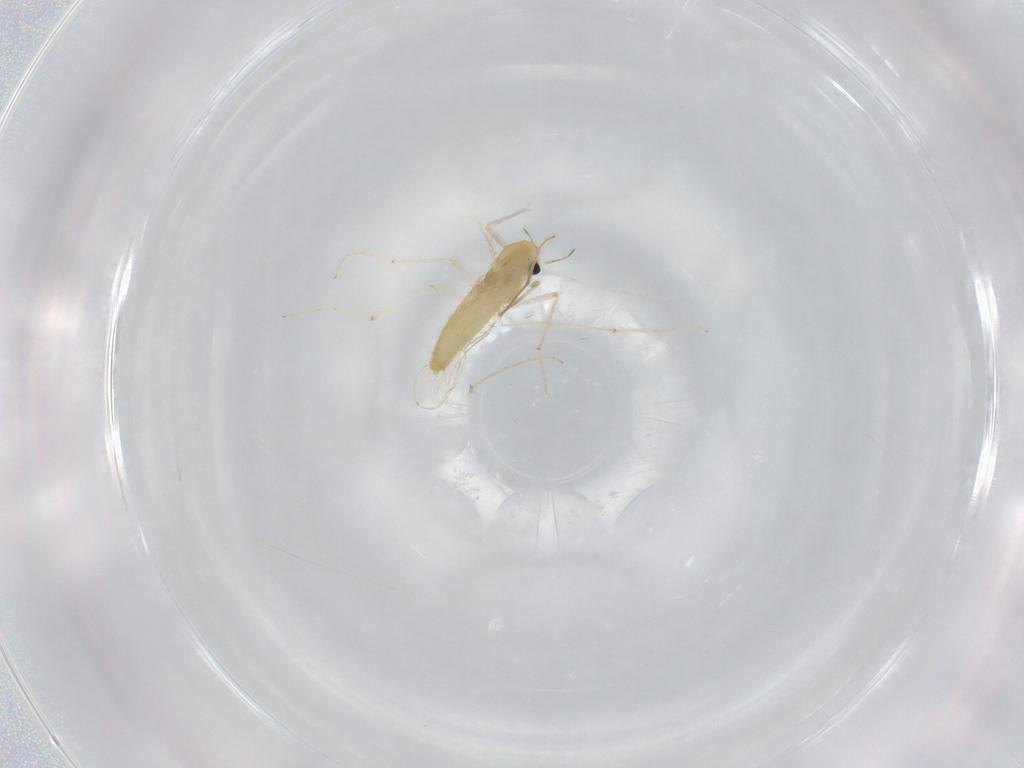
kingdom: Animalia
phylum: Arthropoda
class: Insecta
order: Diptera
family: Chironomidae
